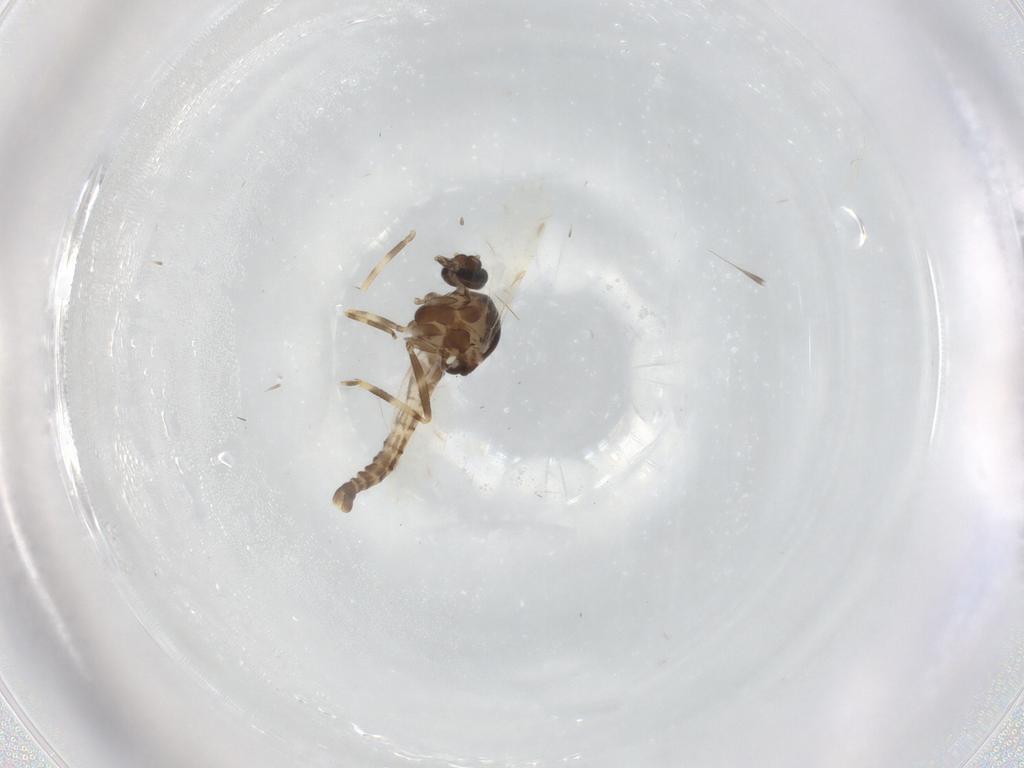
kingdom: Animalia
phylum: Arthropoda
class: Insecta
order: Diptera
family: Ceratopogonidae
